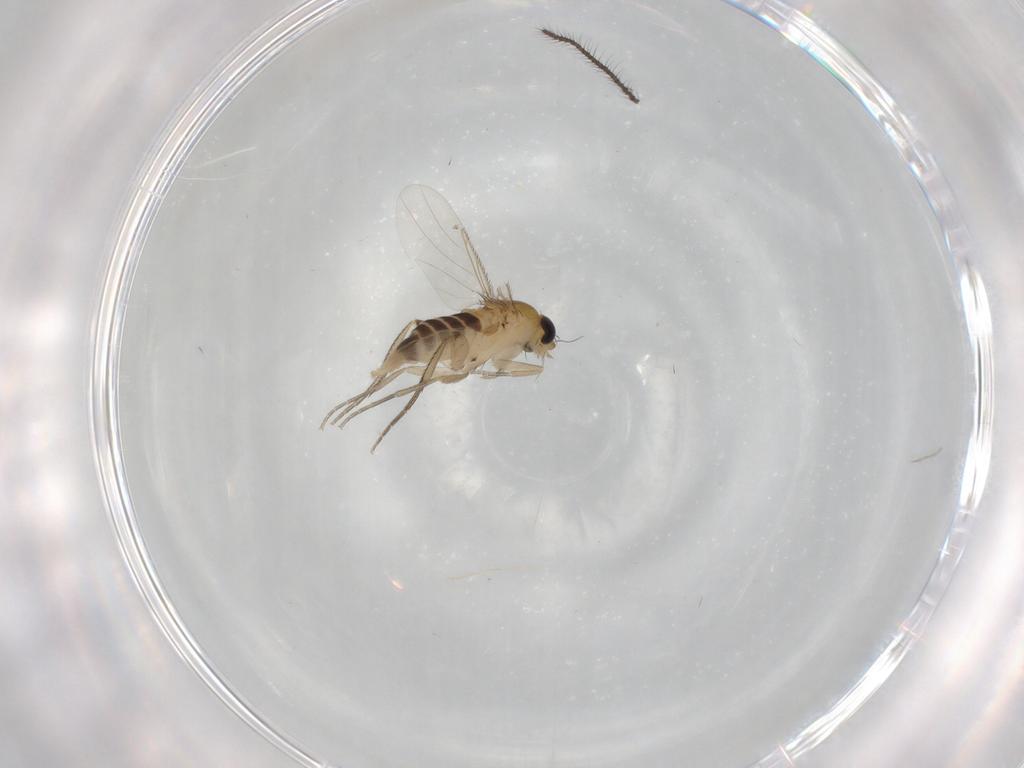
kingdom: Animalia
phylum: Arthropoda
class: Insecta
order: Diptera
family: Phoridae
